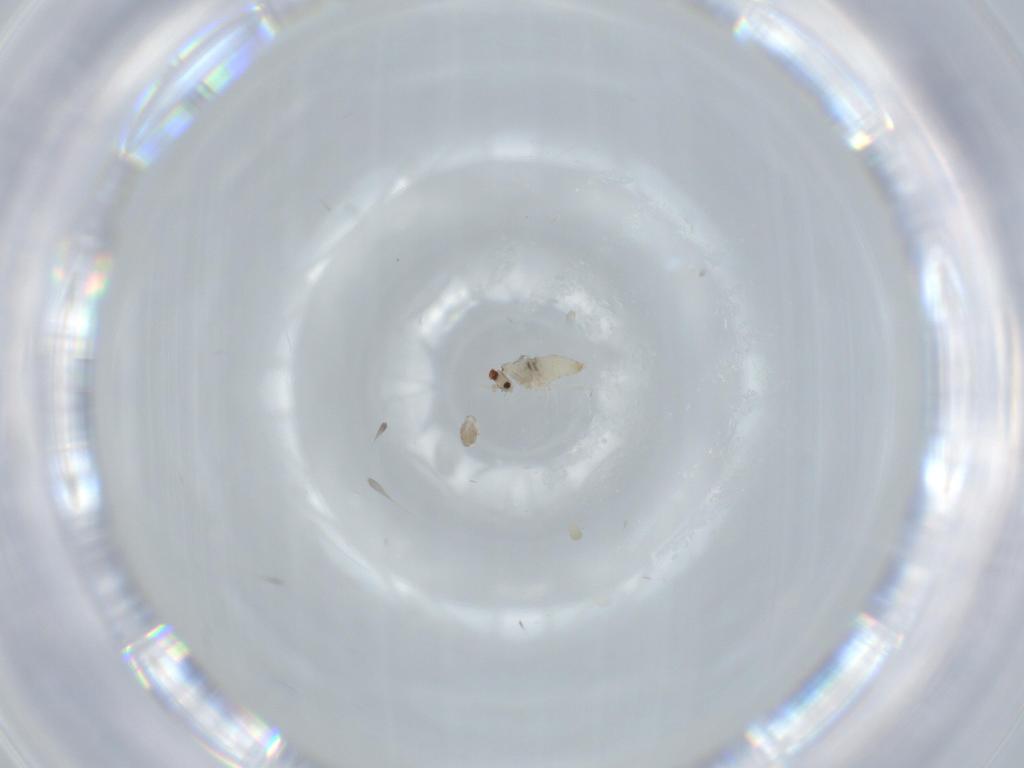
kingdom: Animalia
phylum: Arthropoda
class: Insecta
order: Diptera
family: Cecidomyiidae
